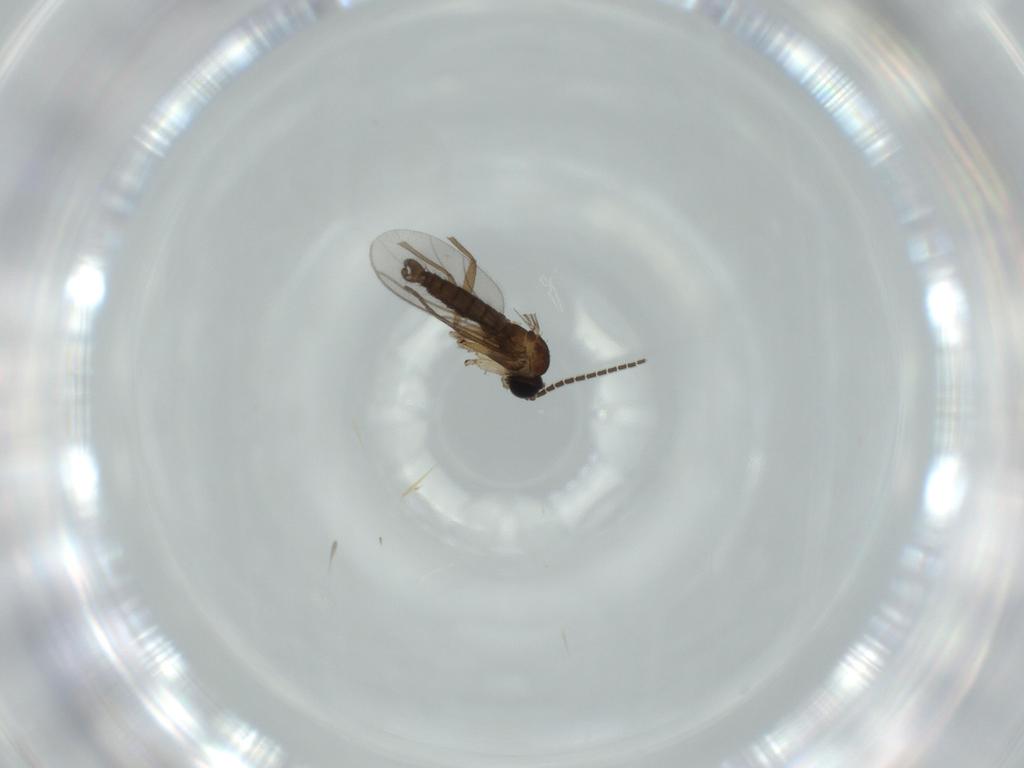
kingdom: Animalia
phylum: Arthropoda
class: Insecta
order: Diptera
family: Sciaridae
